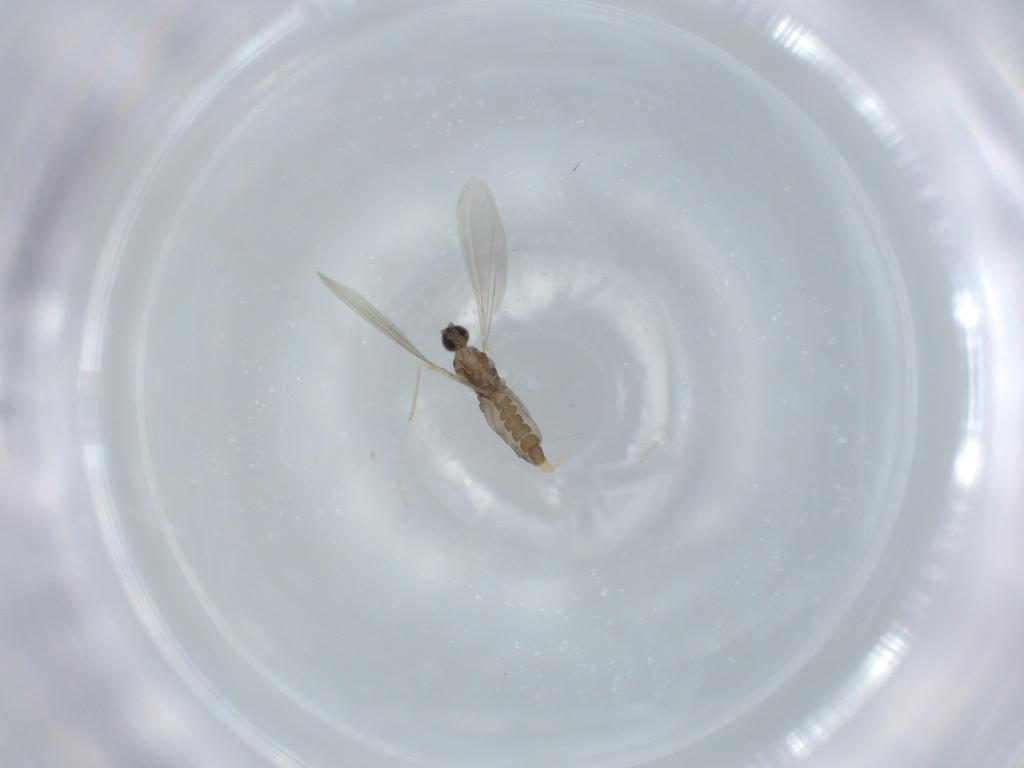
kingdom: Animalia
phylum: Arthropoda
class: Insecta
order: Diptera
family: Cecidomyiidae
